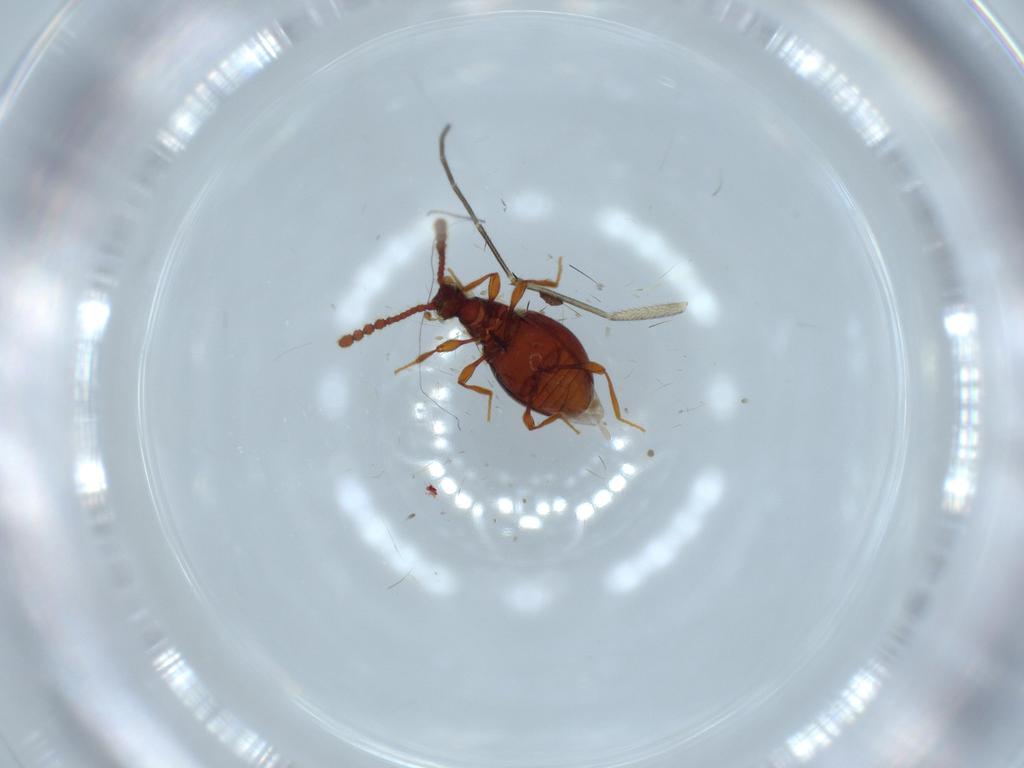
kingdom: Animalia
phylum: Arthropoda
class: Insecta
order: Coleoptera
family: Staphylinidae
